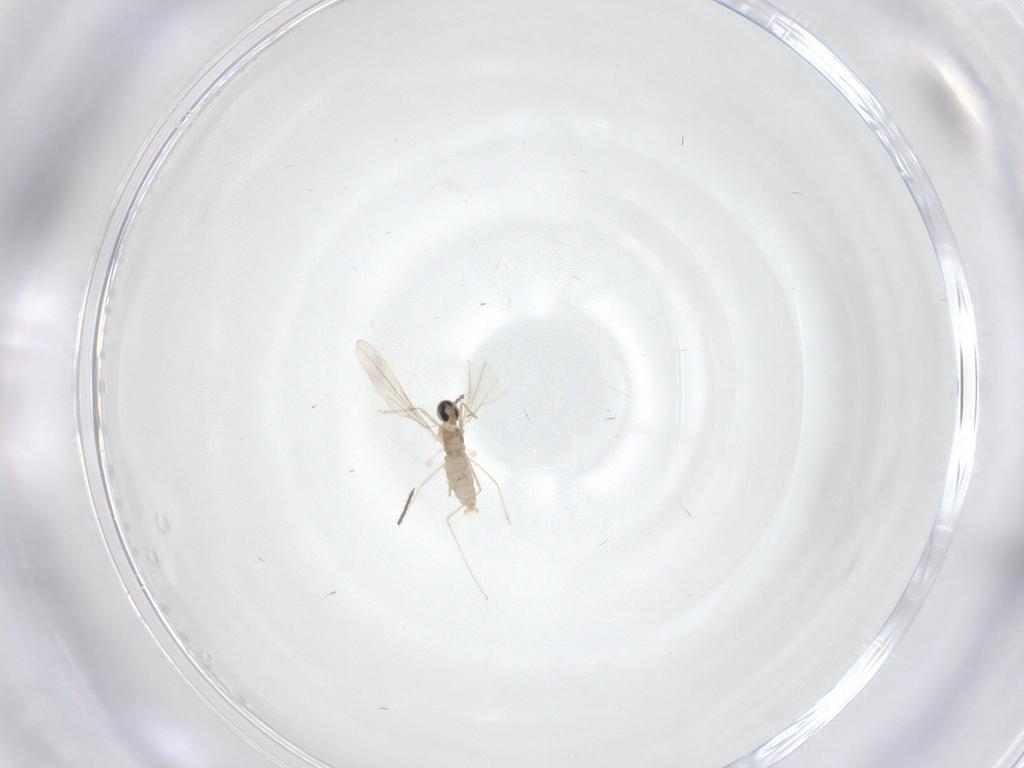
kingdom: Animalia
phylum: Arthropoda
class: Insecta
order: Diptera
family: Cecidomyiidae
